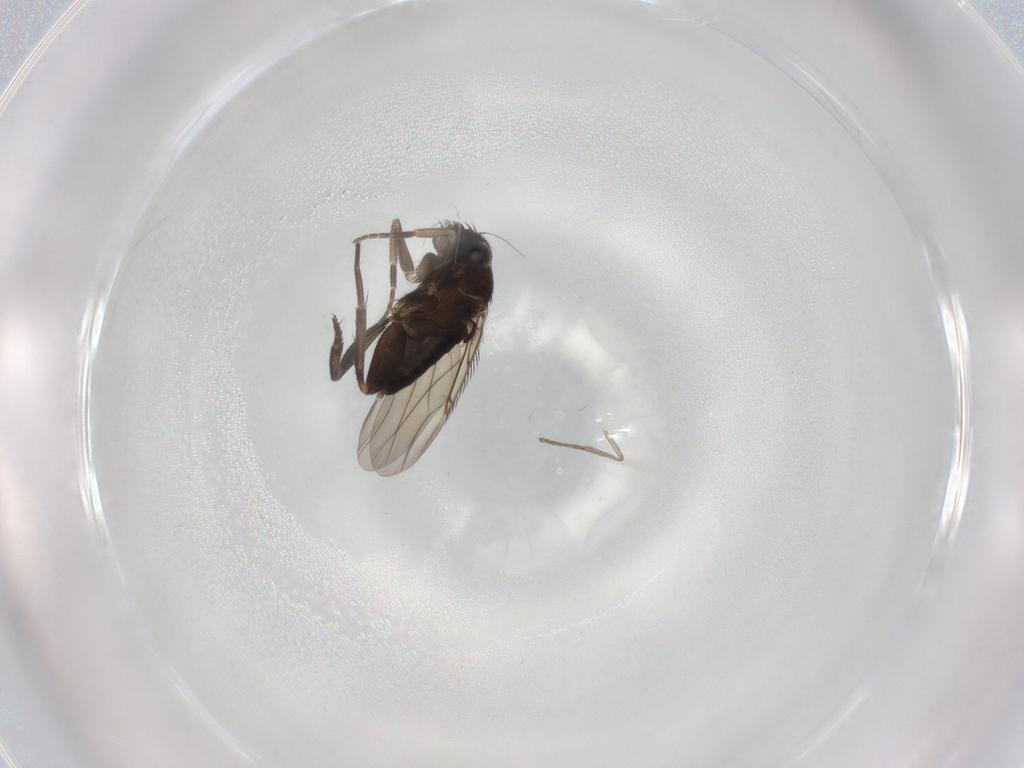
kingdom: Animalia
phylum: Arthropoda
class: Insecta
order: Diptera
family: Phoridae
